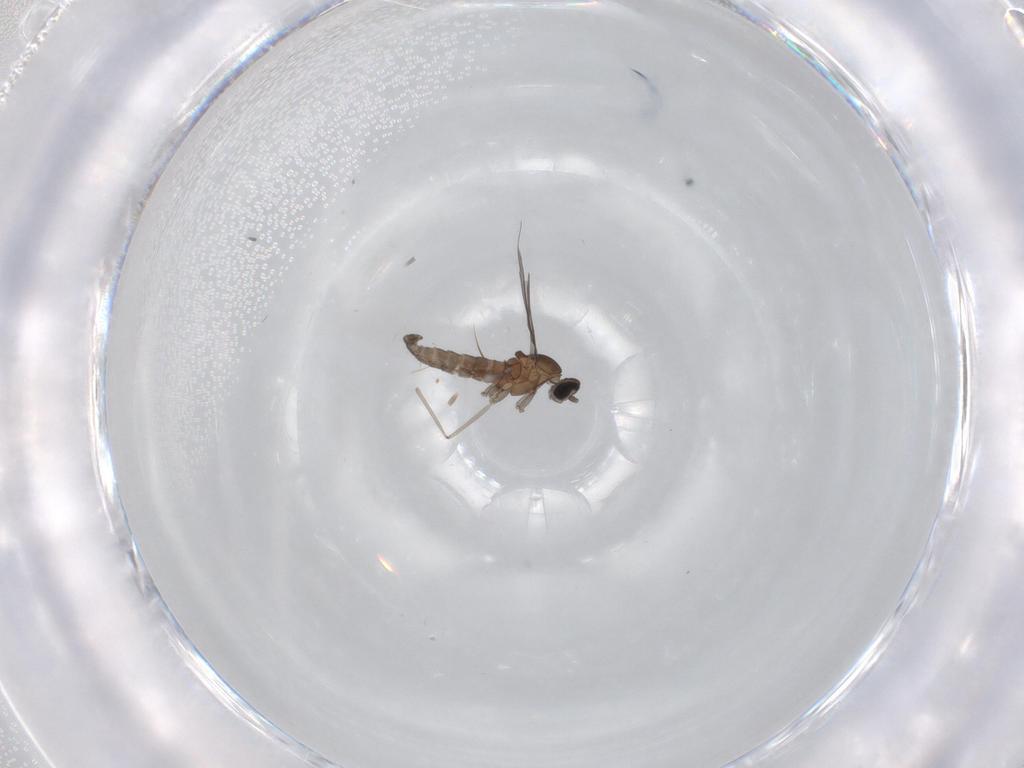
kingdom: Animalia
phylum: Arthropoda
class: Insecta
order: Diptera
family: Cecidomyiidae
